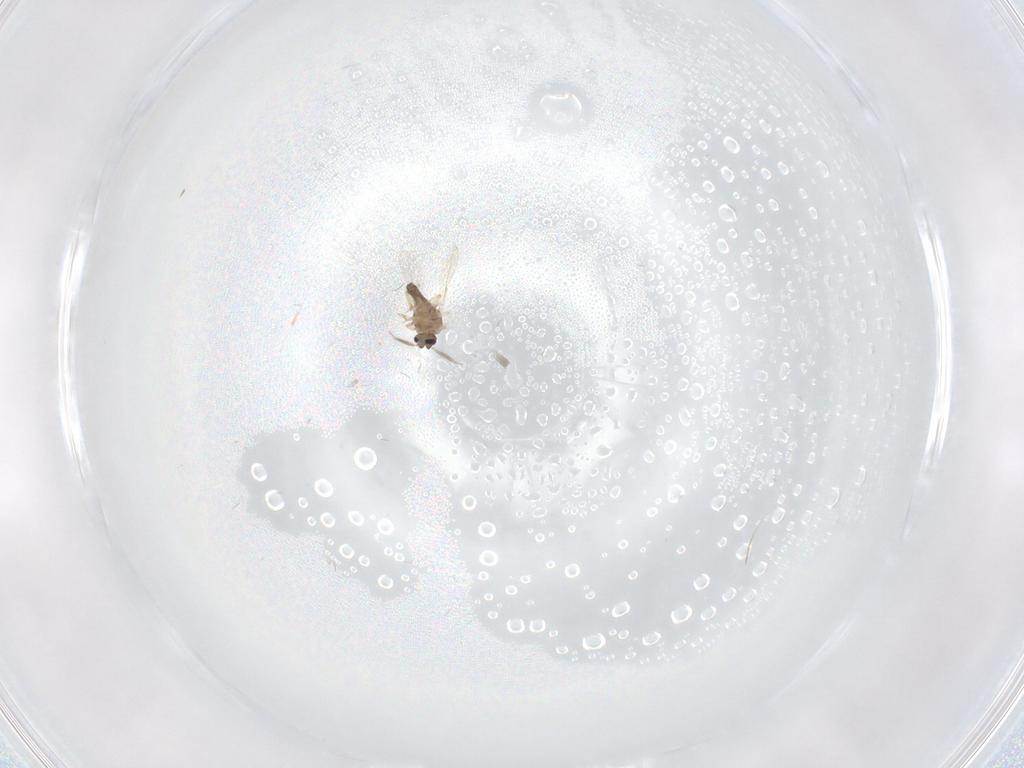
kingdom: Animalia
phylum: Arthropoda
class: Insecta
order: Diptera
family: Ceratopogonidae
